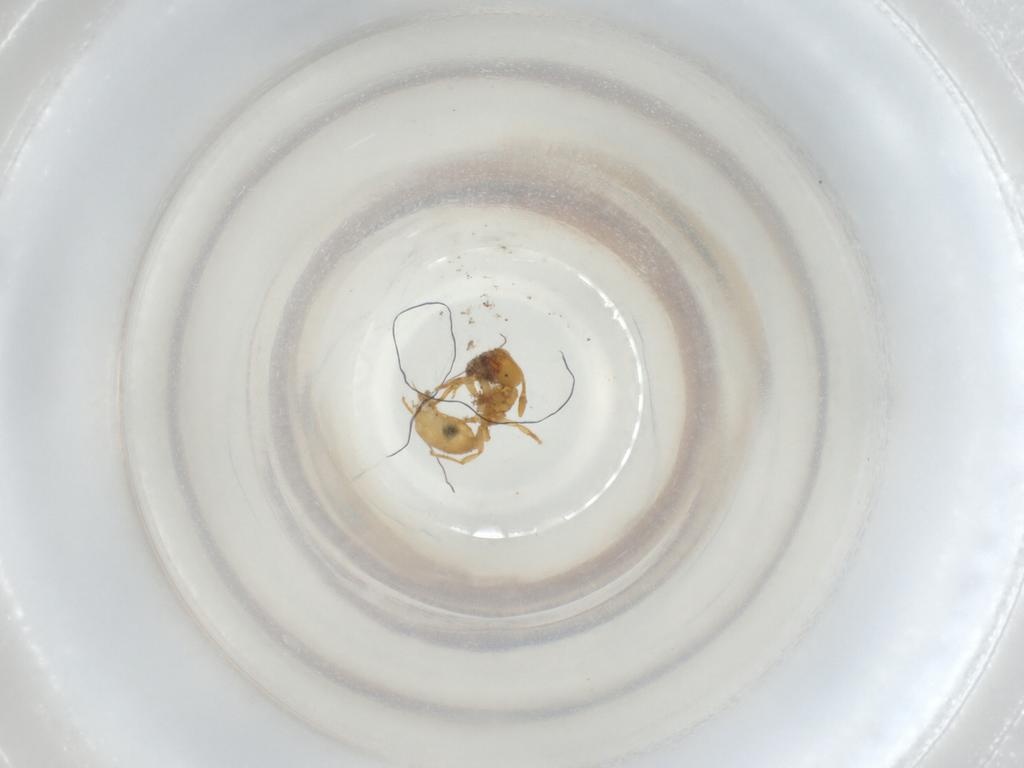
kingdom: Animalia
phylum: Arthropoda
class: Insecta
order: Hymenoptera
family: Formicidae
